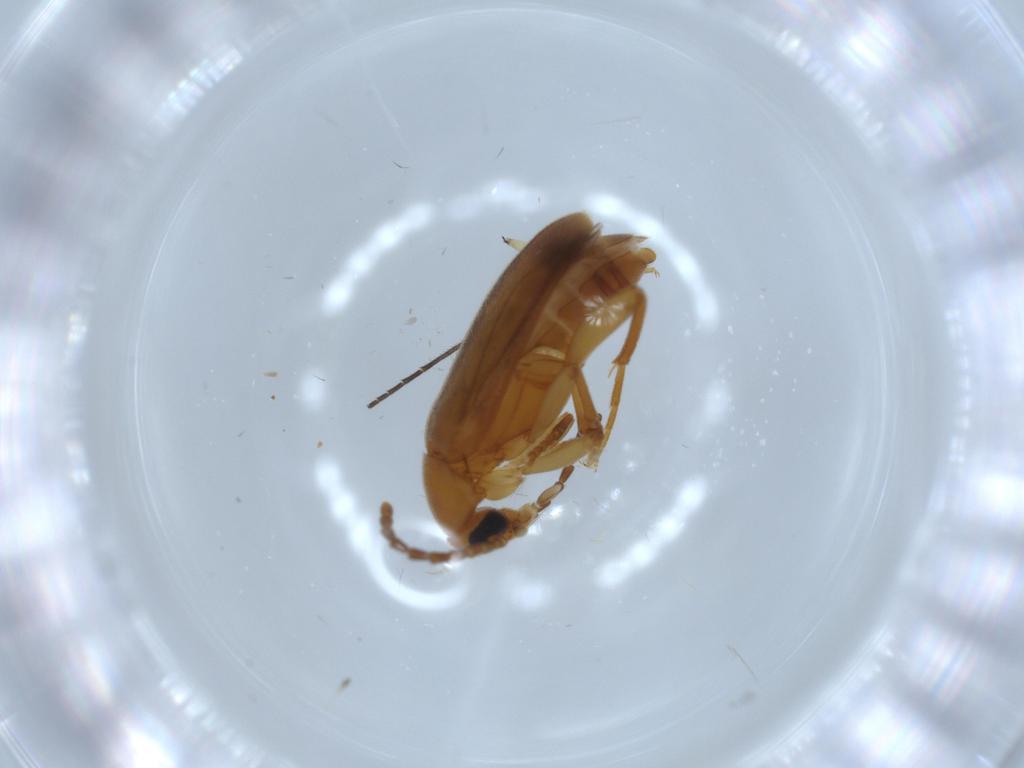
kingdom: Animalia
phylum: Arthropoda
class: Insecta
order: Coleoptera
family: Scraptiidae
